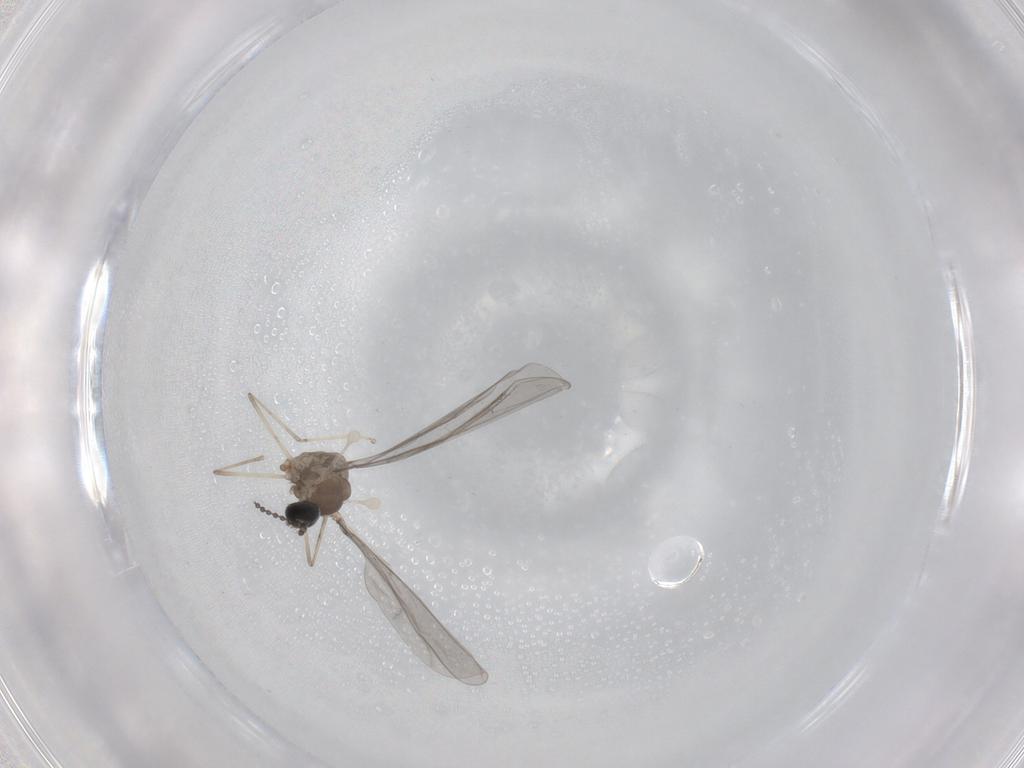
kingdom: Animalia
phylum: Arthropoda
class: Insecta
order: Diptera
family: Cecidomyiidae
